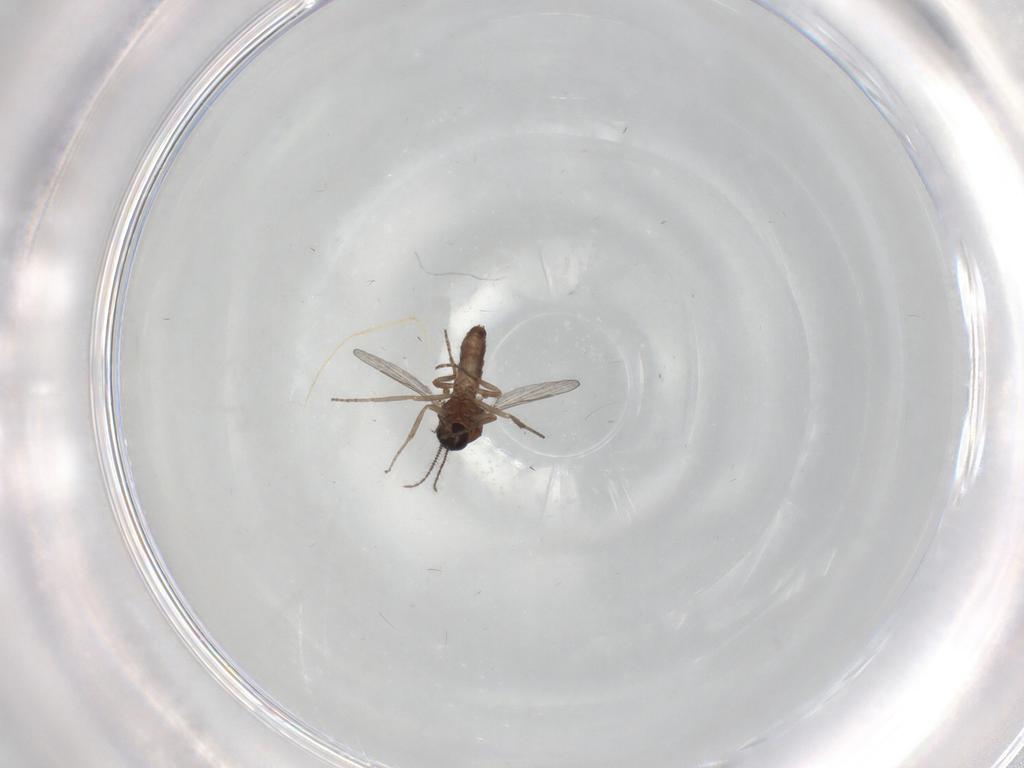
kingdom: Animalia
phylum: Arthropoda
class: Insecta
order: Diptera
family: Chironomidae
